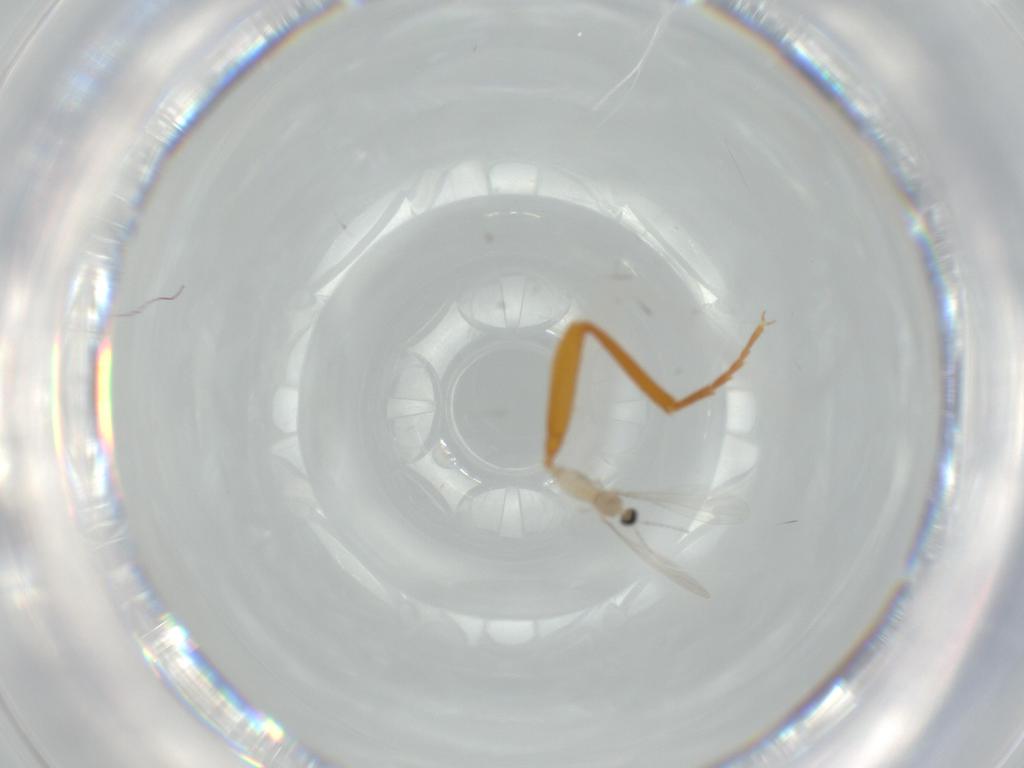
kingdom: Animalia
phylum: Arthropoda
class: Insecta
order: Diptera
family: Cecidomyiidae
